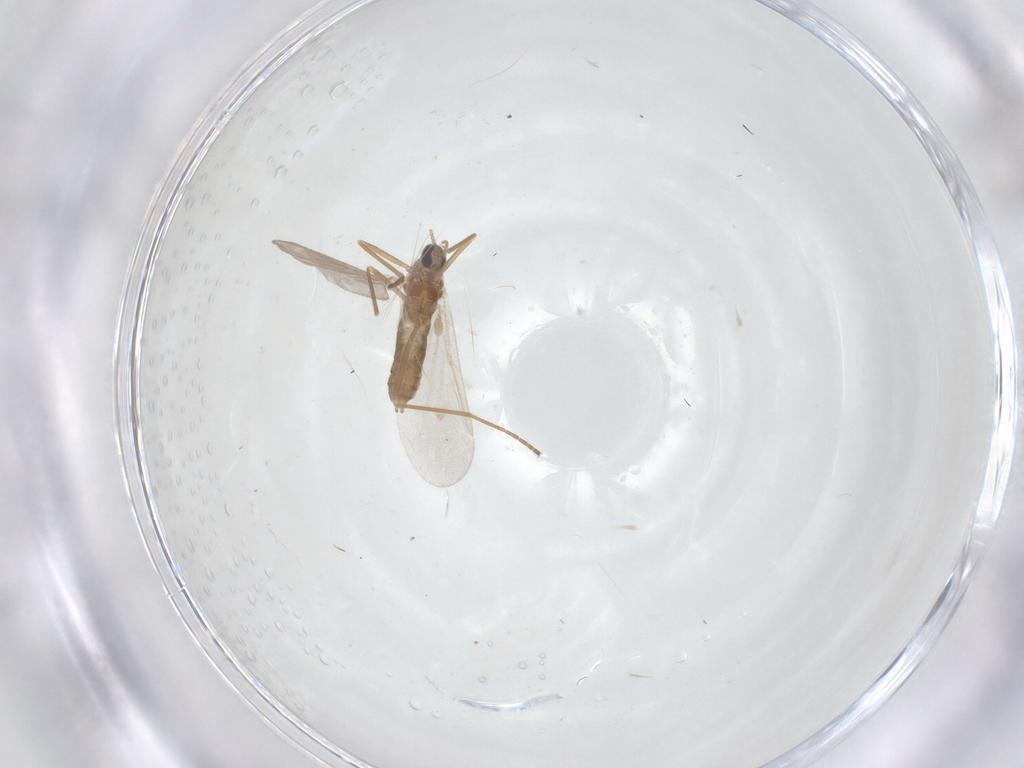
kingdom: Animalia
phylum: Arthropoda
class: Insecta
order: Diptera
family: Cecidomyiidae
